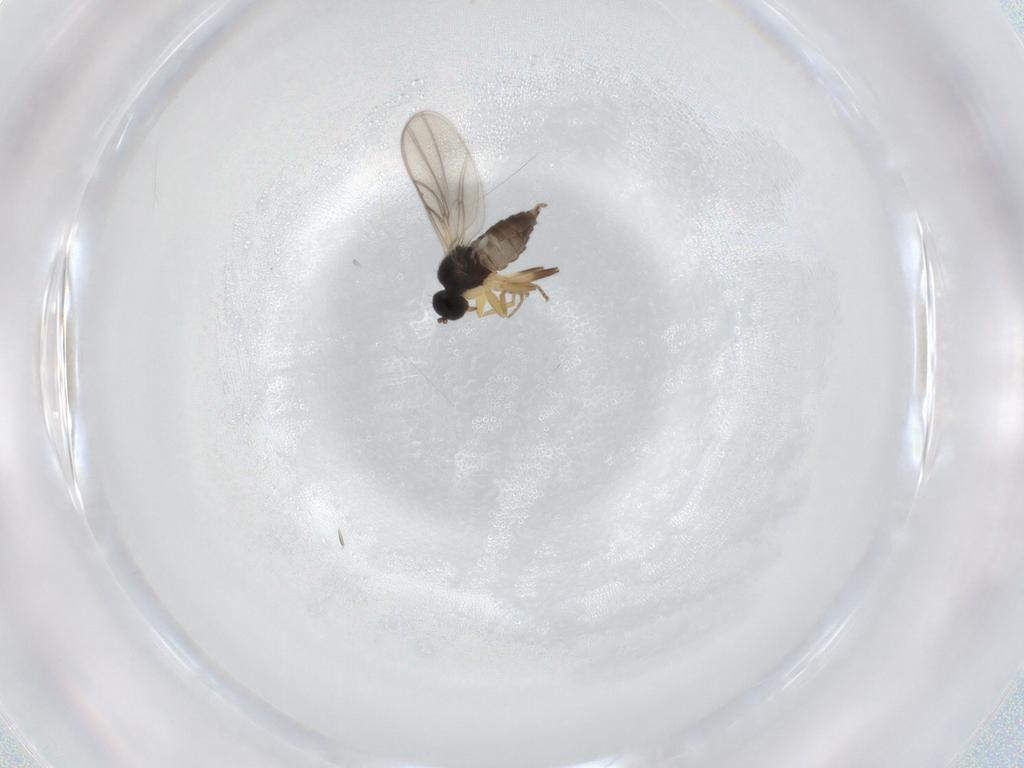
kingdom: Animalia
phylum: Arthropoda
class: Insecta
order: Diptera
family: Hybotidae
